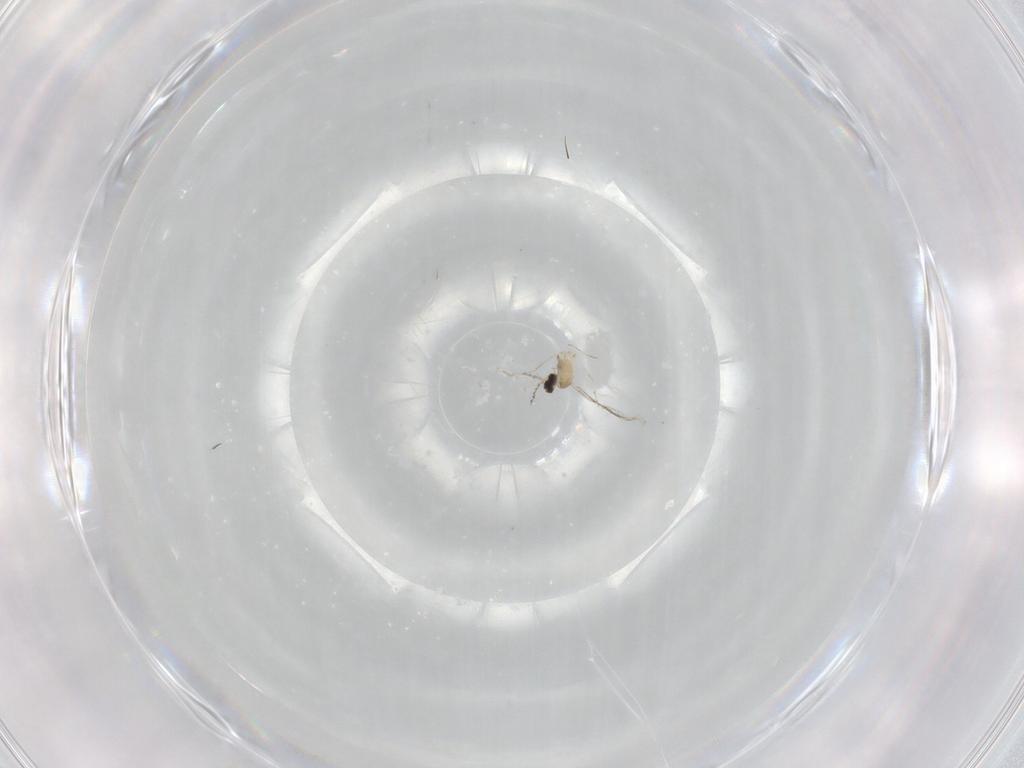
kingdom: Animalia
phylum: Arthropoda
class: Insecta
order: Diptera
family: Cecidomyiidae
